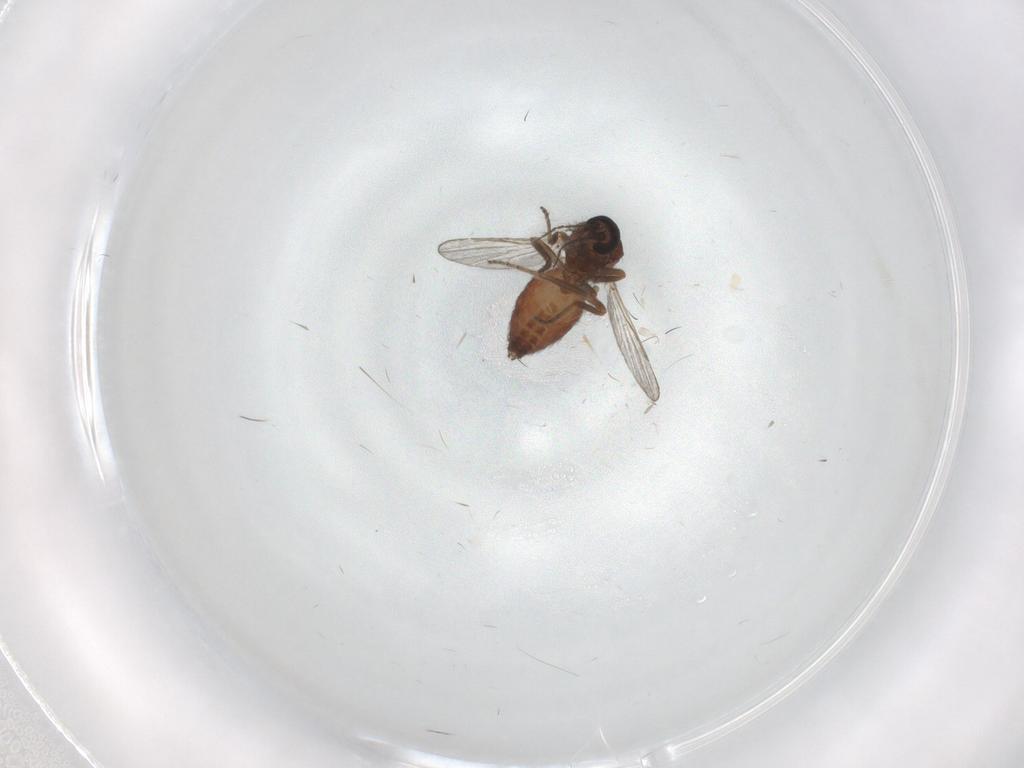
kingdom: Animalia
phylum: Arthropoda
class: Insecta
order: Diptera
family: Ceratopogonidae
